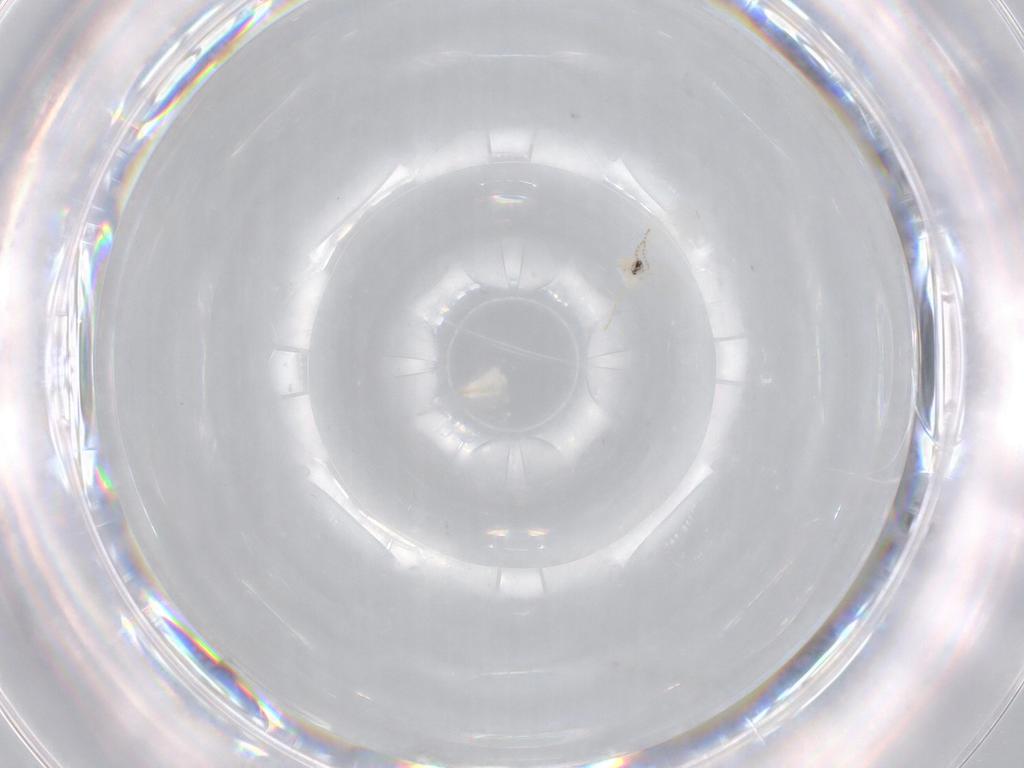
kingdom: Animalia
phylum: Arthropoda
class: Insecta
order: Diptera
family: Cecidomyiidae
